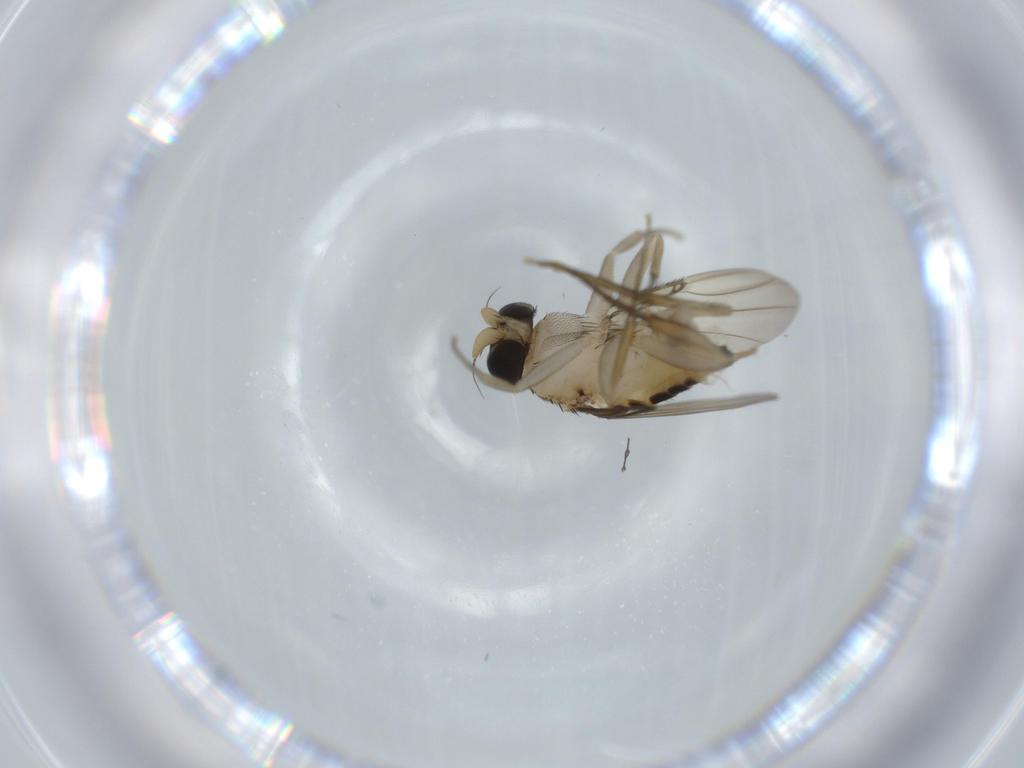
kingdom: Animalia
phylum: Arthropoda
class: Insecta
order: Diptera
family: Phoridae
